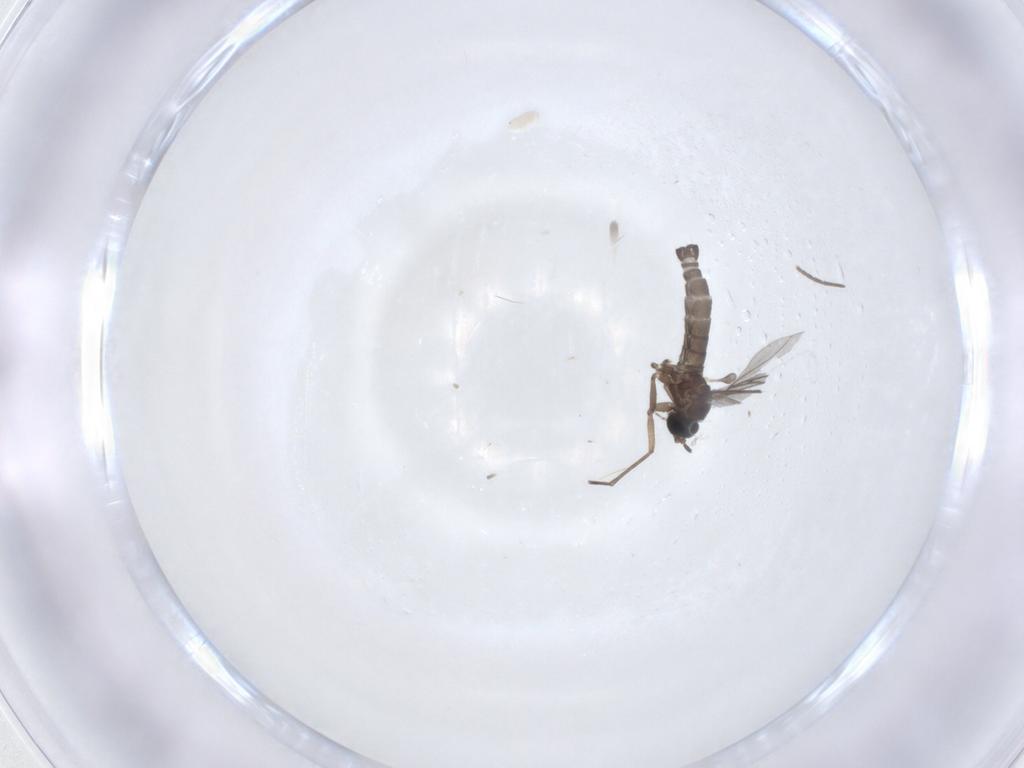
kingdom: Animalia
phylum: Arthropoda
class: Insecta
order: Diptera
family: Sciaridae
